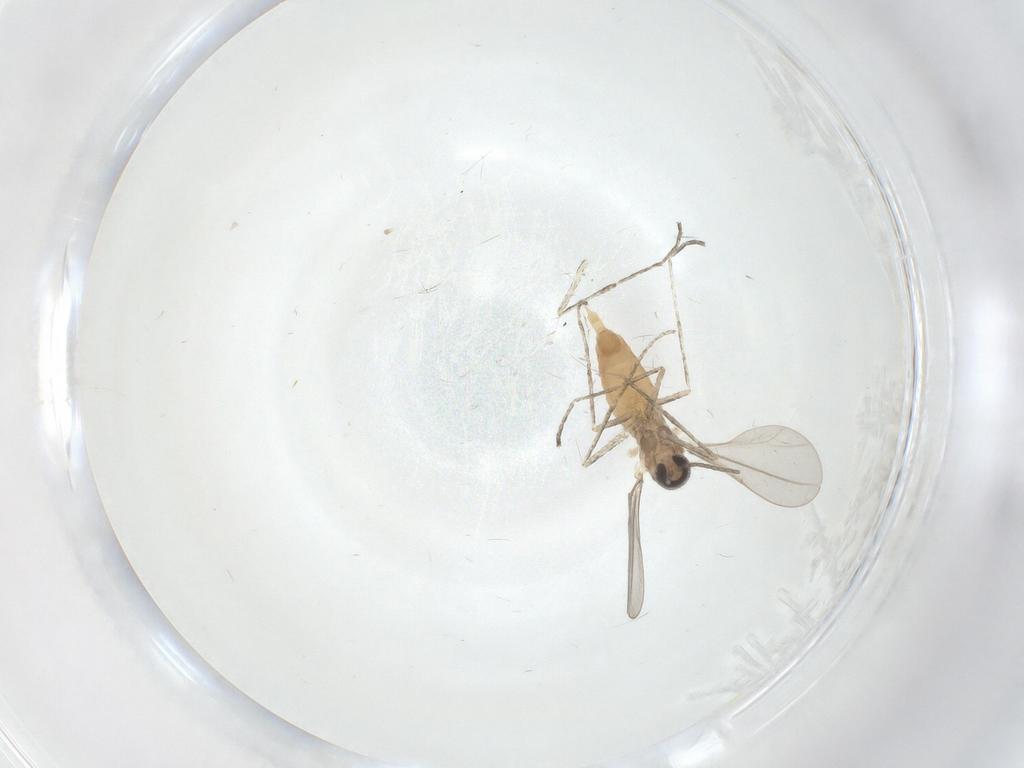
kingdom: Animalia
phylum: Arthropoda
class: Insecta
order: Diptera
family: Cecidomyiidae
